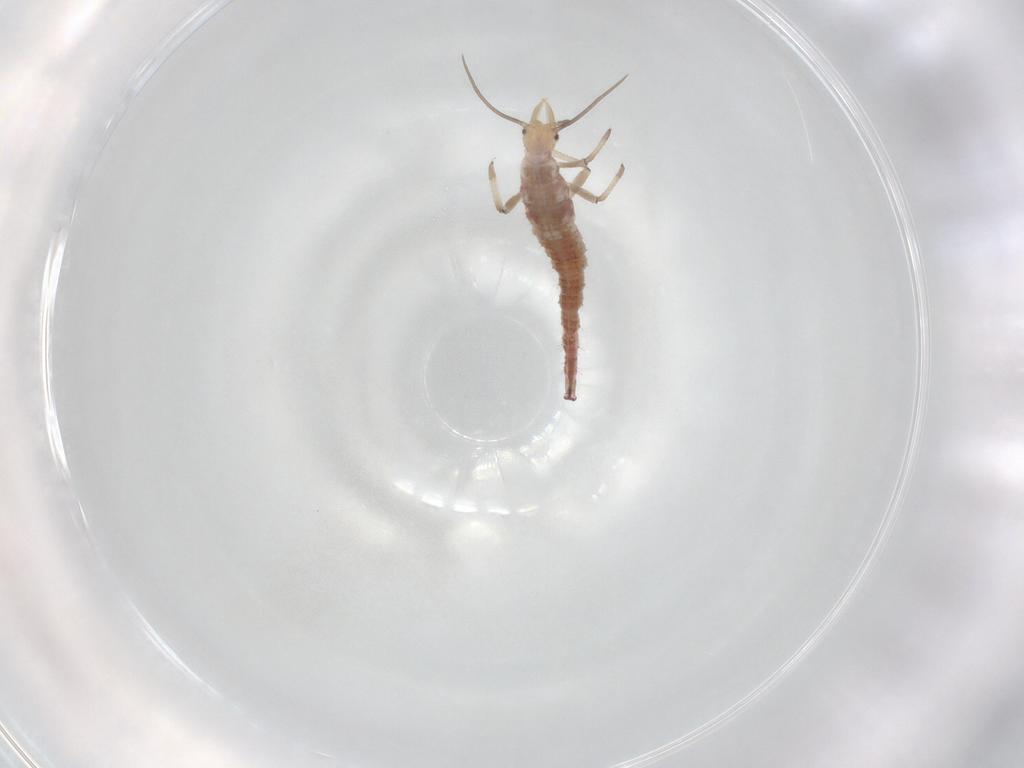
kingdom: Animalia
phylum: Arthropoda
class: Insecta
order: Neuroptera
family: Hemerobiidae
